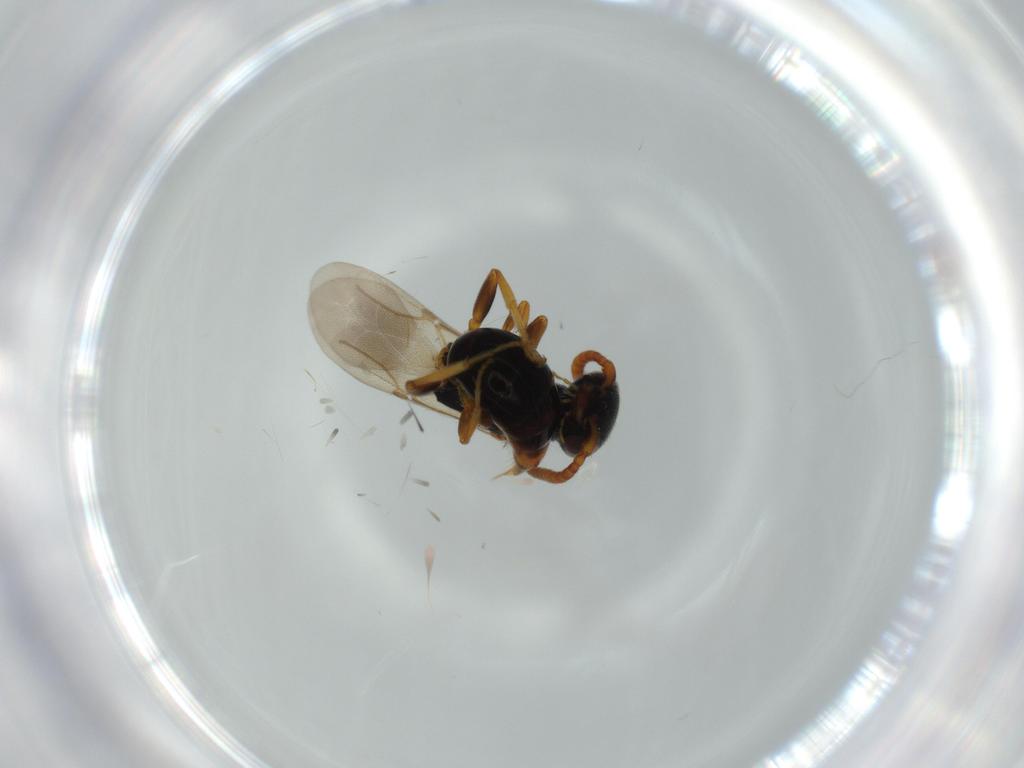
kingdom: Animalia
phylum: Arthropoda
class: Insecta
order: Hymenoptera
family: Bethylidae
